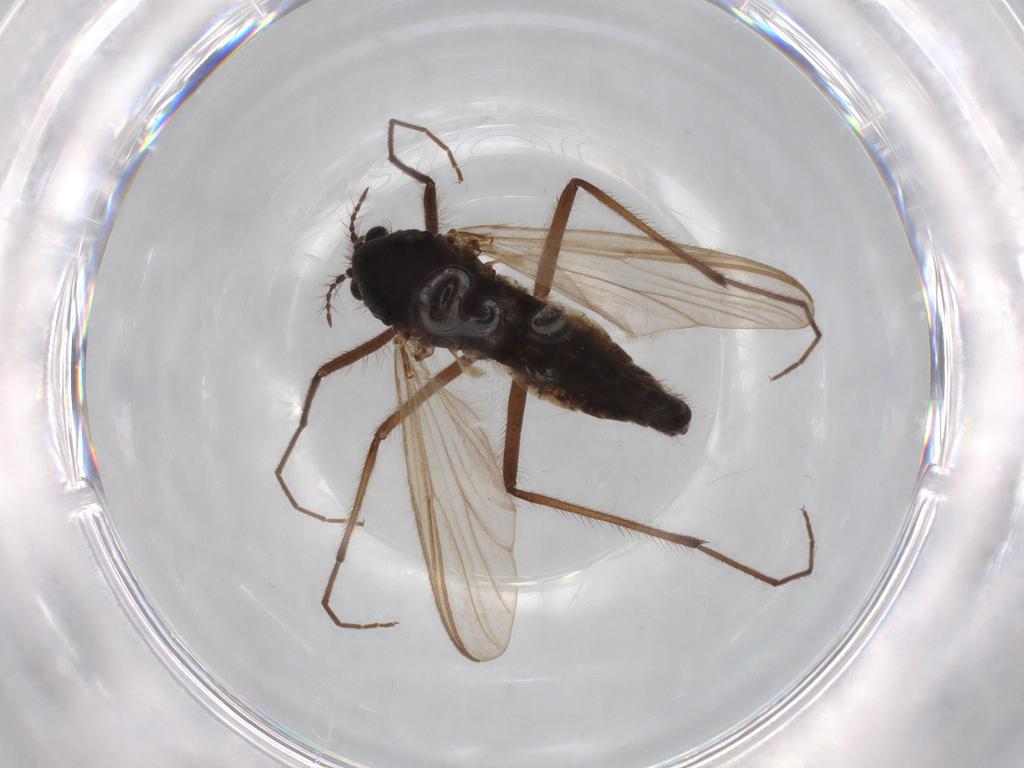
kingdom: Animalia
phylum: Arthropoda
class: Insecta
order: Diptera
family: Chironomidae
